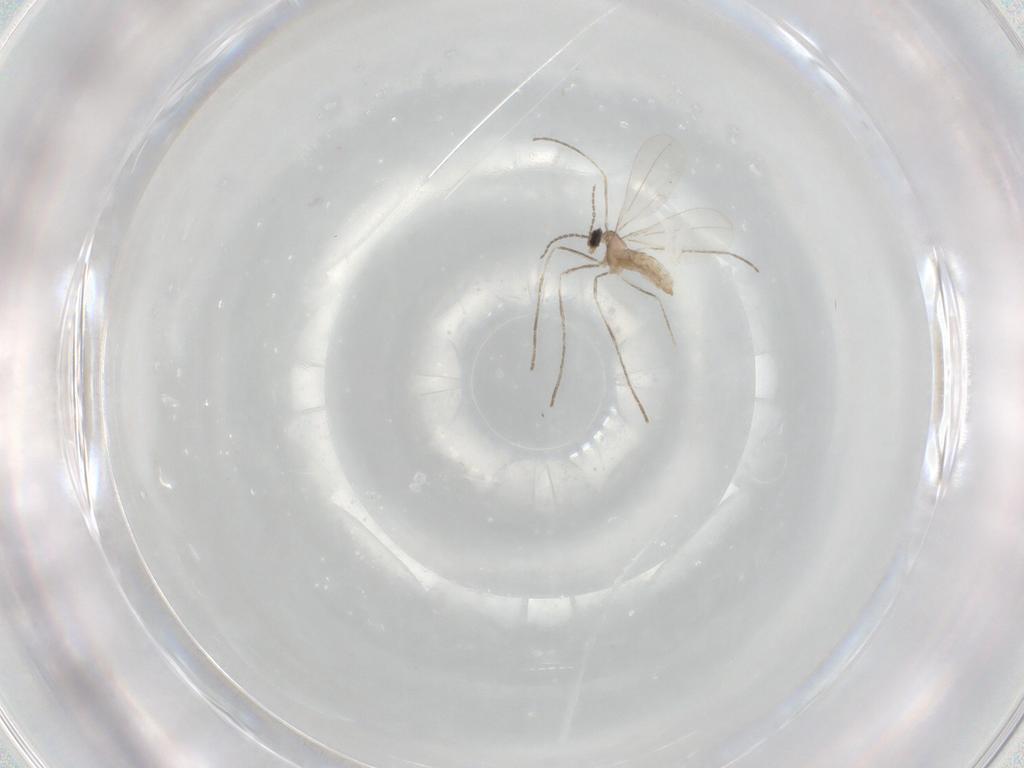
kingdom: Animalia
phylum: Arthropoda
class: Insecta
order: Diptera
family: Cecidomyiidae
